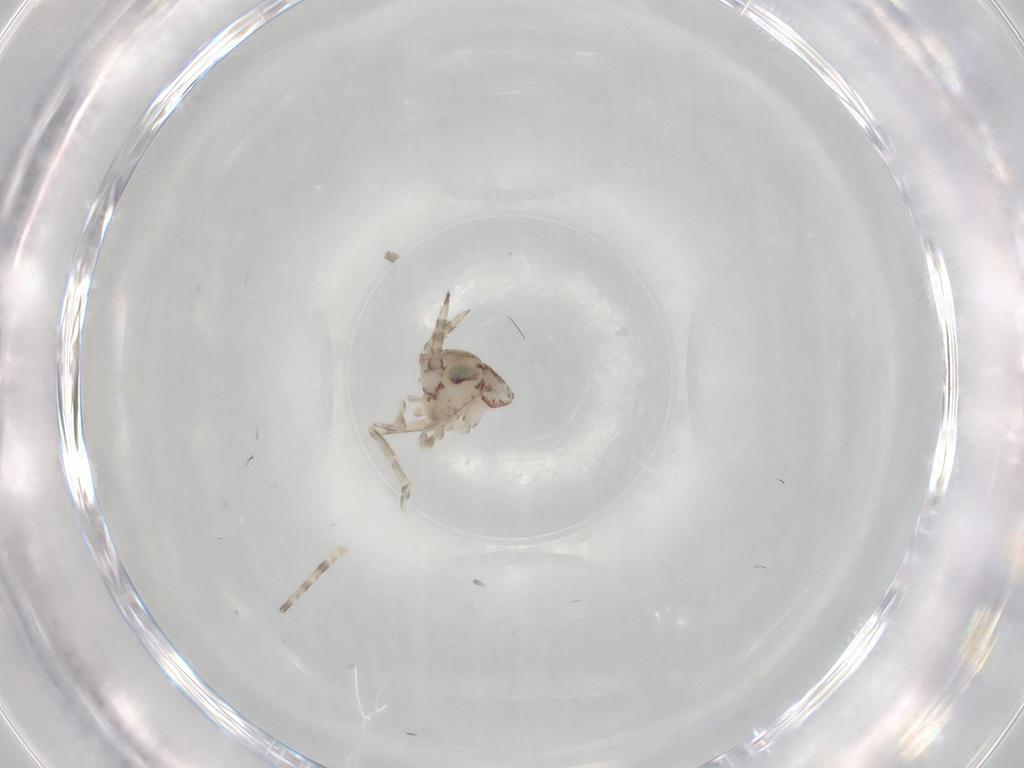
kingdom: Animalia
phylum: Arthropoda
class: Insecta
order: Orthoptera
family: Trigonidiidae
